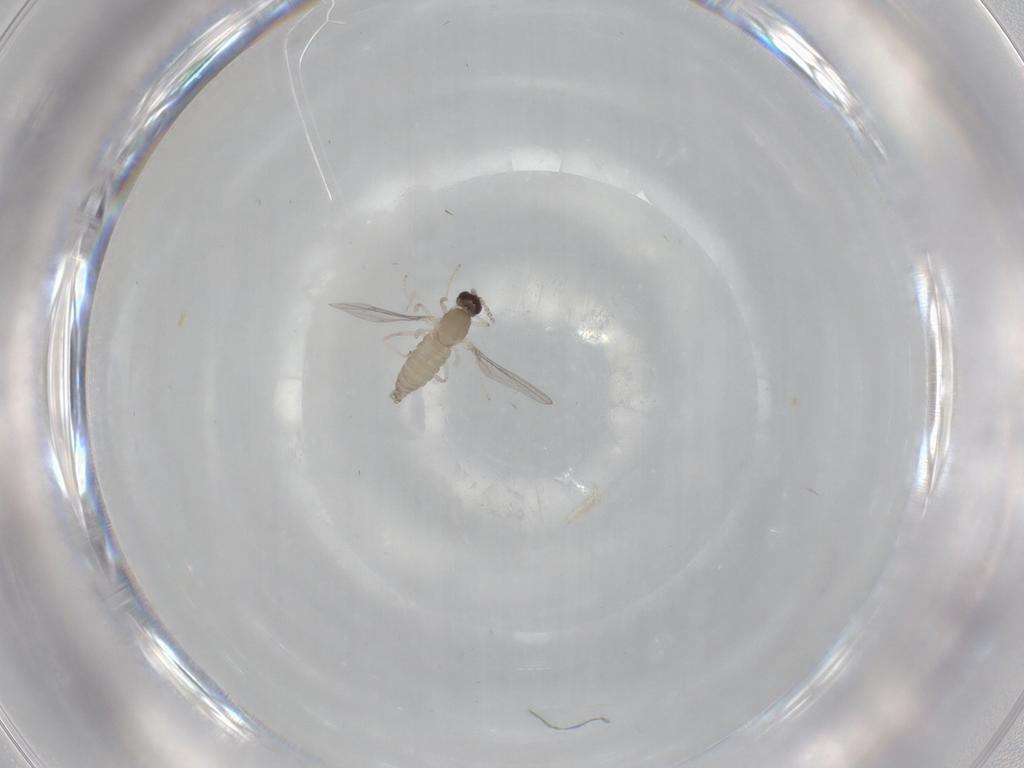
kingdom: Animalia
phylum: Arthropoda
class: Insecta
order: Diptera
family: Cecidomyiidae
